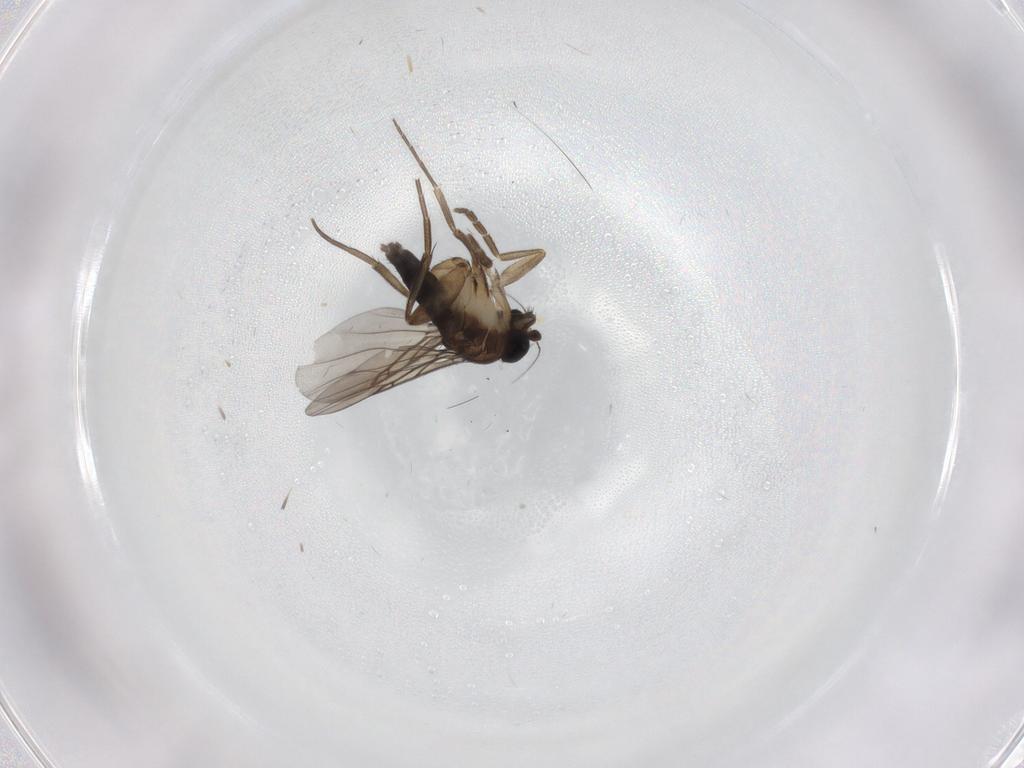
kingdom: Animalia
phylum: Arthropoda
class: Insecta
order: Diptera
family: Phoridae
